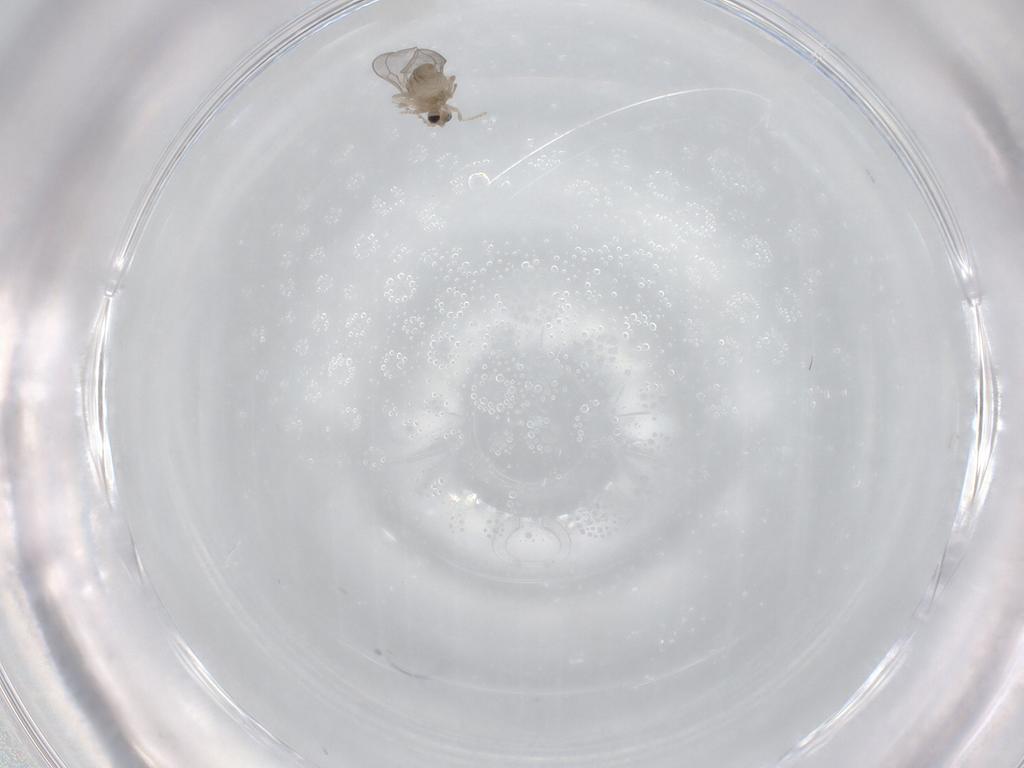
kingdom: Animalia
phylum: Arthropoda
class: Insecta
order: Diptera
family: Cecidomyiidae
